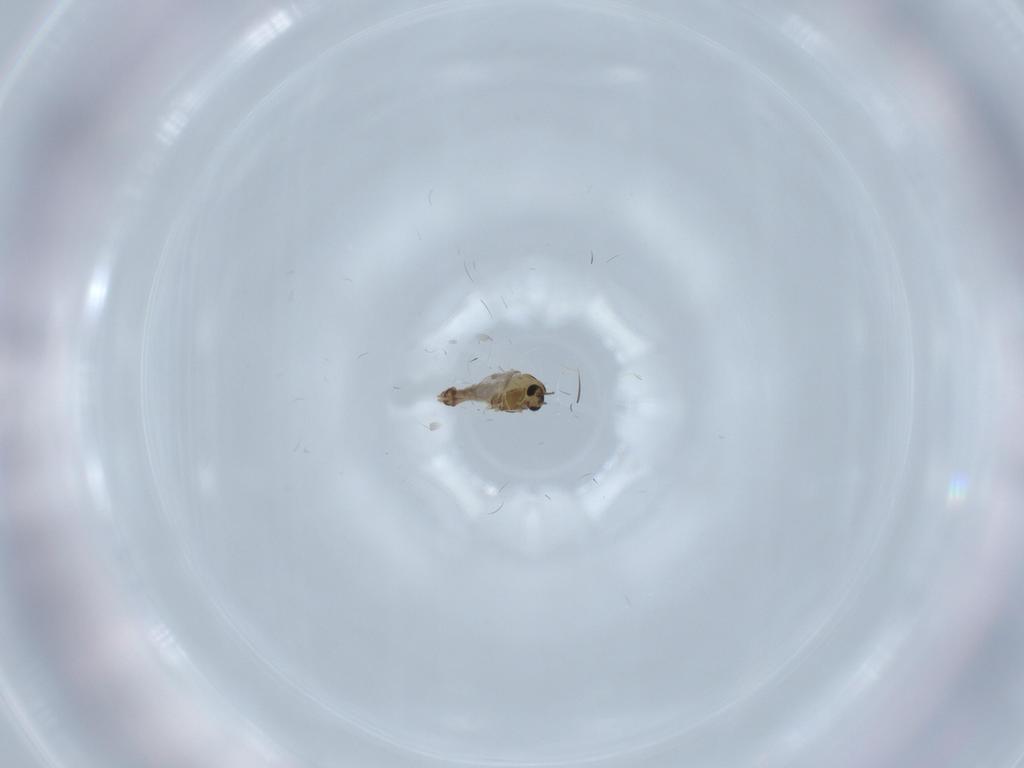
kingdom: Animalia
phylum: Arthropoda
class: Insecta
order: Diptera
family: Chironomidae
